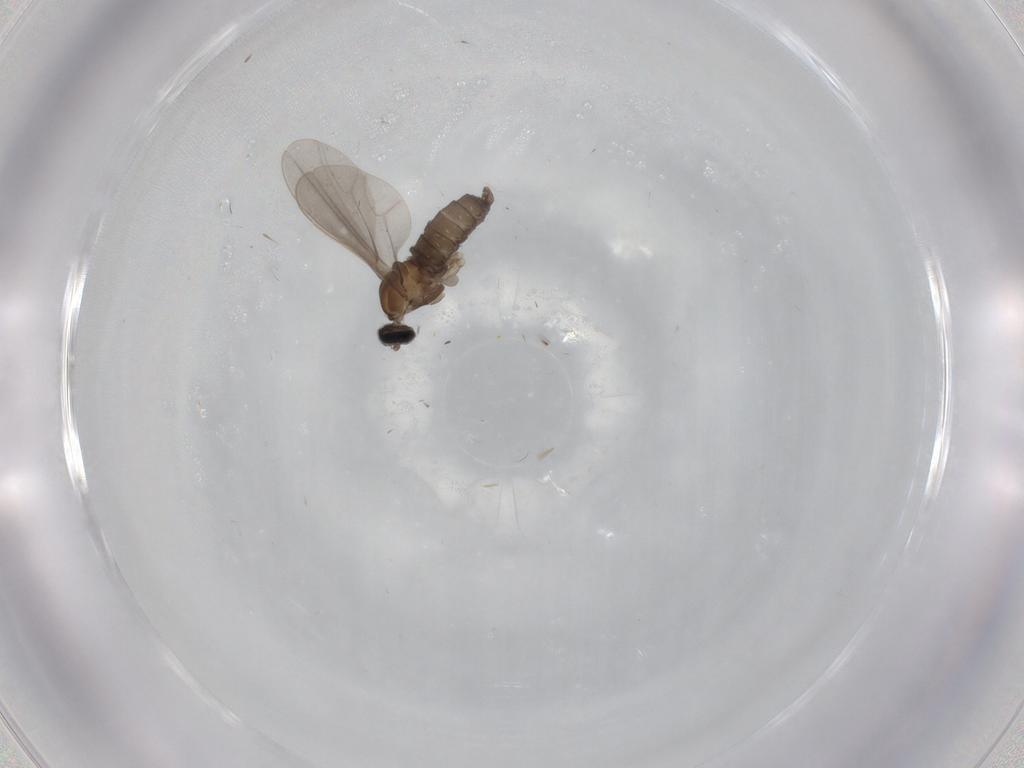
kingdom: Animalia
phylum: Arthropoda
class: Insecta
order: Diptera
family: Cecidomyiidae
